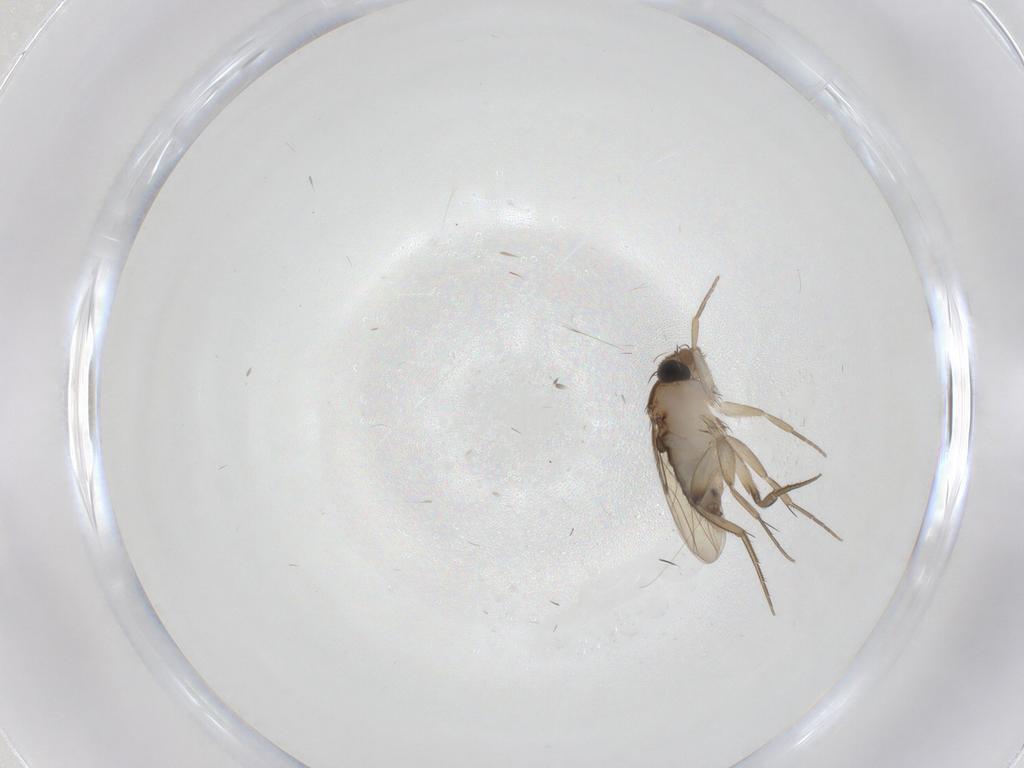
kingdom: Animalia
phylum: Arthropoda
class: Insecta
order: Diptera
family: Phoridae
